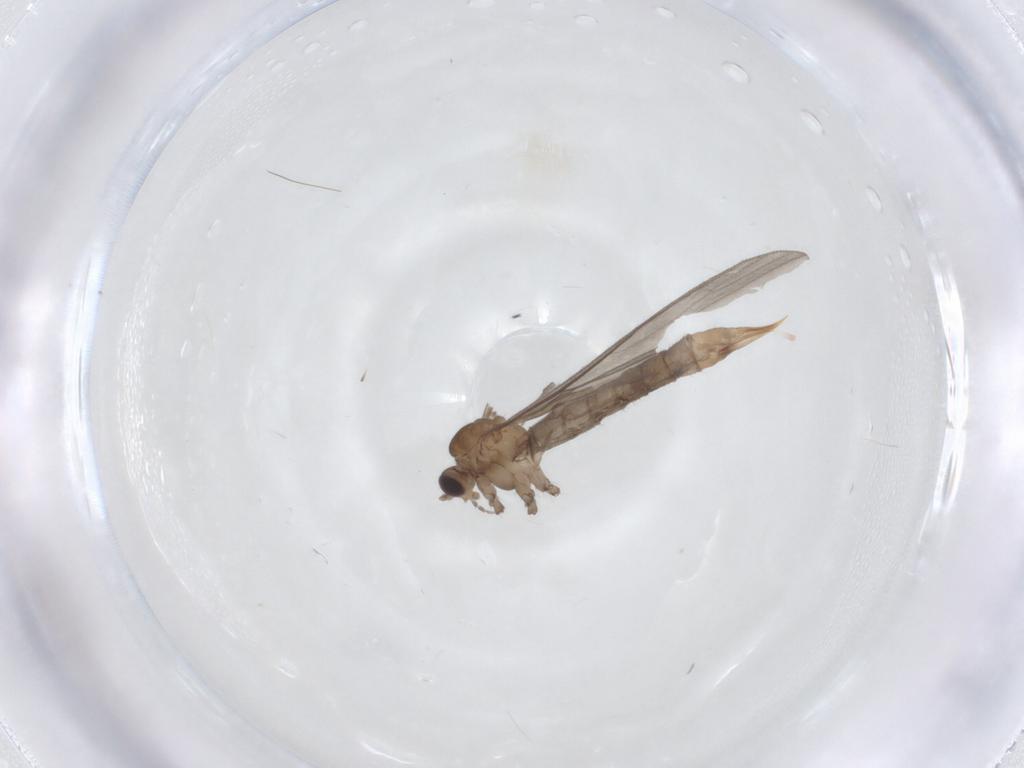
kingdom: Animalia
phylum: Arthropoda
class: Insecta
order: Diptera
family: Limoniidae
